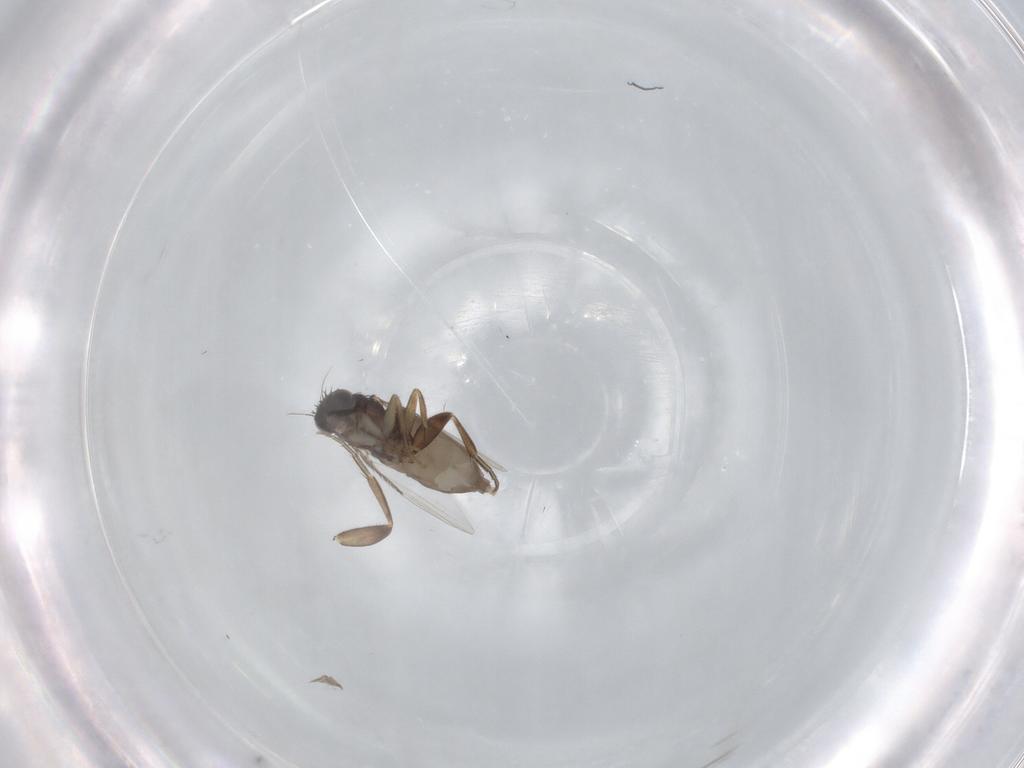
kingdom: Animalia
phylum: Arthropoda
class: Insecta
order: Diptera
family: Phoridae
